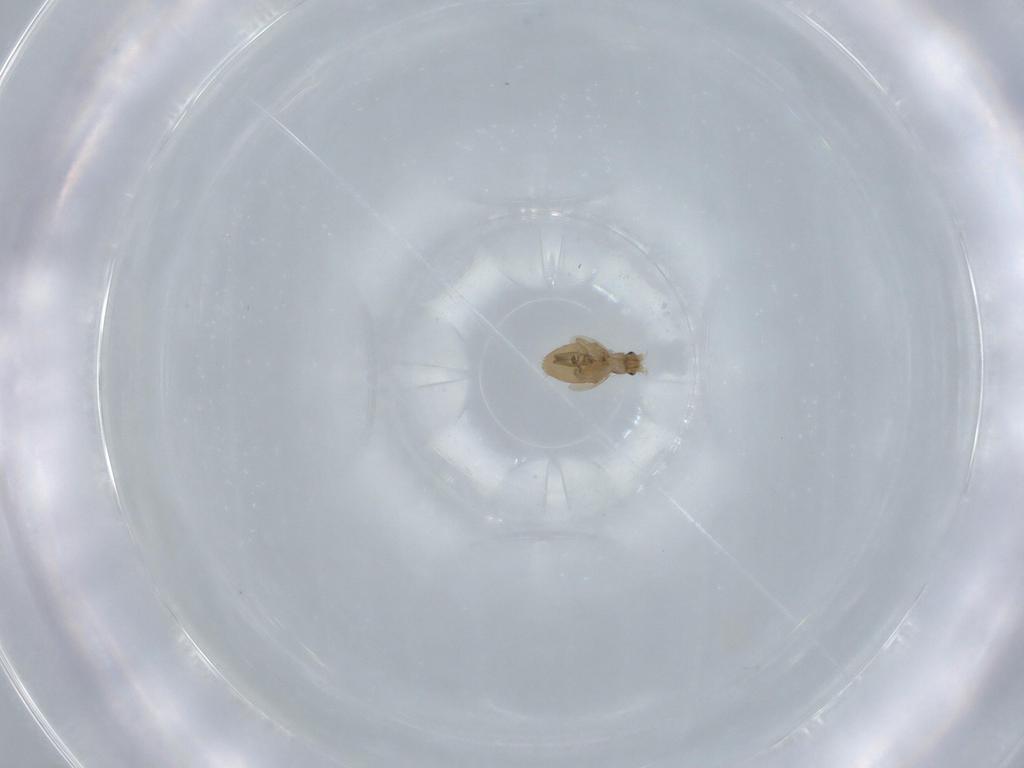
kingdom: Animalia
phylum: Arthropoda
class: Insecta
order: Diptera
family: Phoridae
